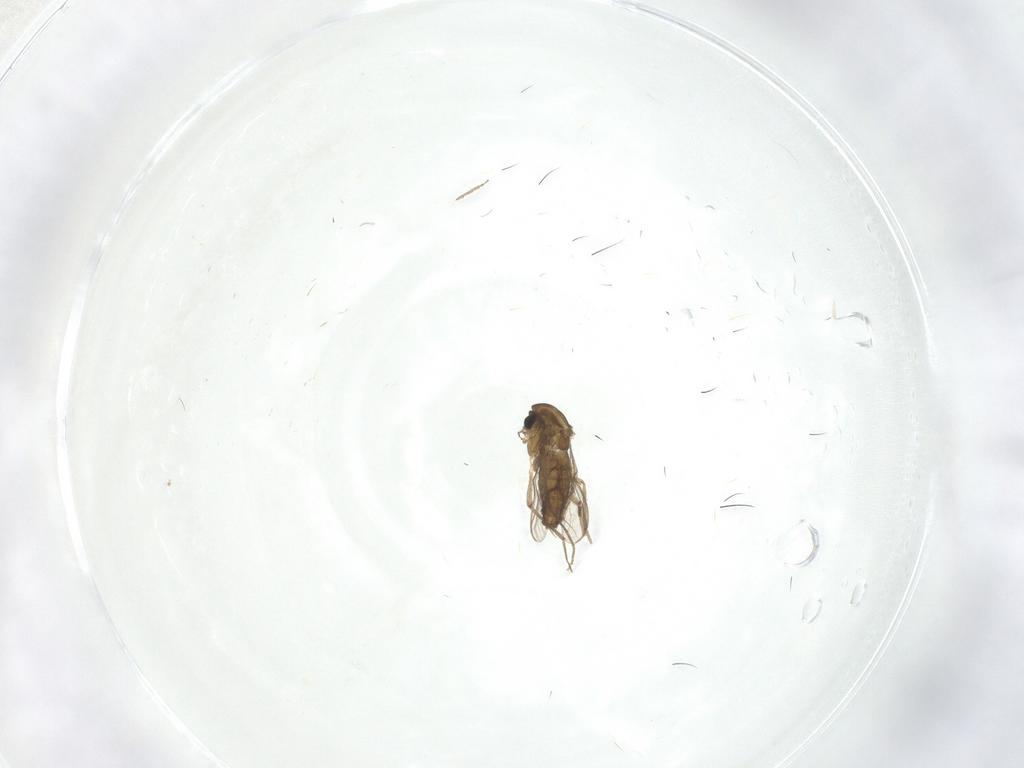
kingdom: Animalia
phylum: Arthropoda
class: Insecta
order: Diptera
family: Chironomidae
